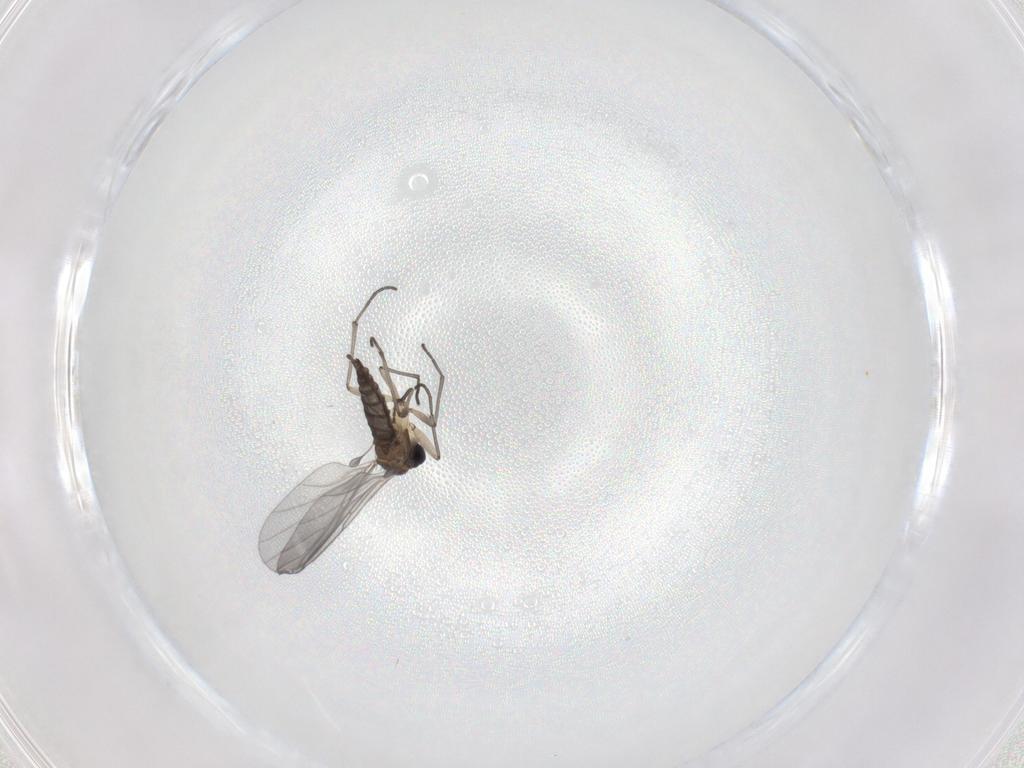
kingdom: Animalia
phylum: Arthropoda
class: Insecta
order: Diptera
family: Sciaridae
